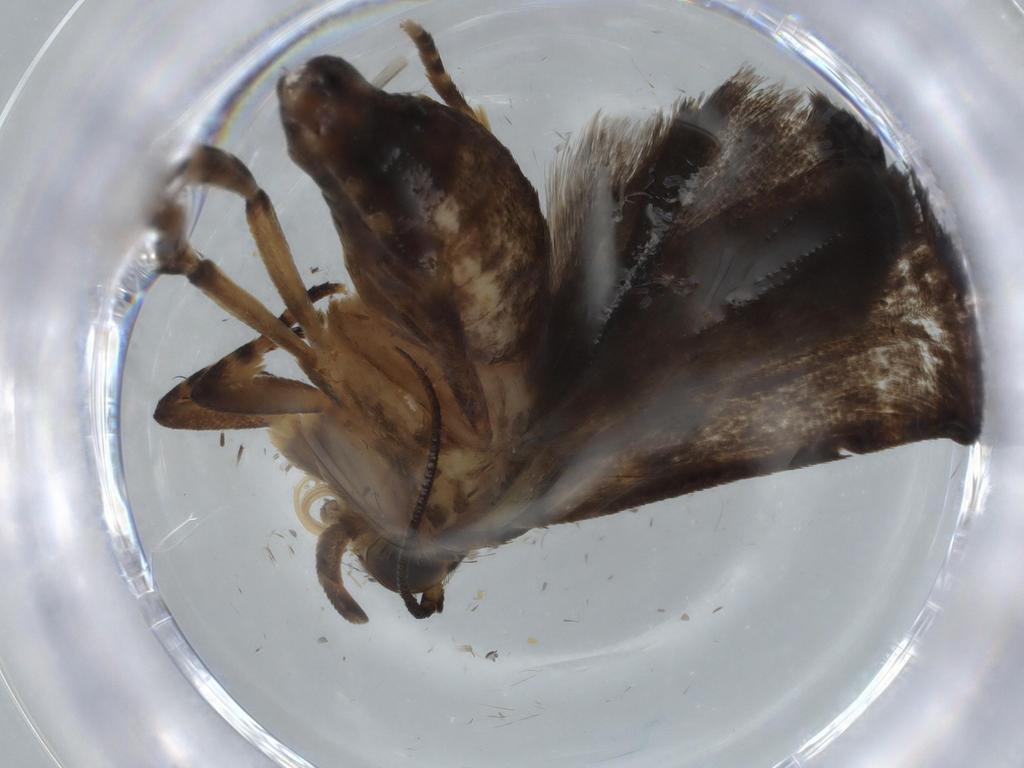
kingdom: Animalia
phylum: Arthropoda
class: Insecta
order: Lepidoptera
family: Immidae
